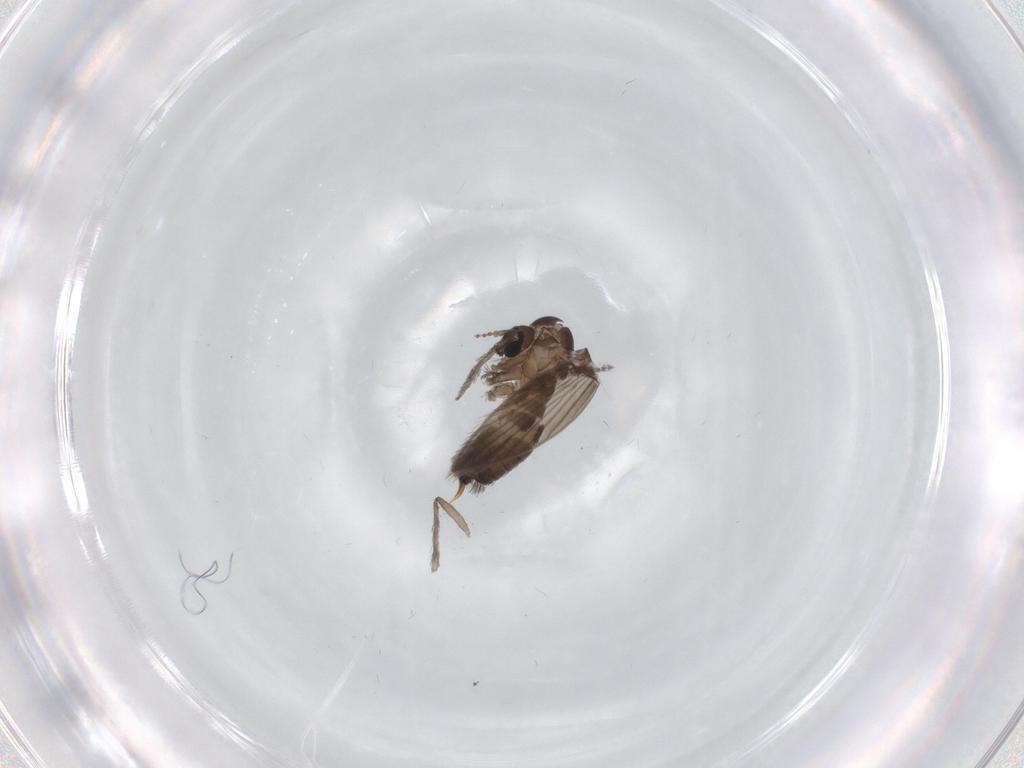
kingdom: Animalia
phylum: Arthropoda
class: Insecta
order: Diptera
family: Psychodidae
